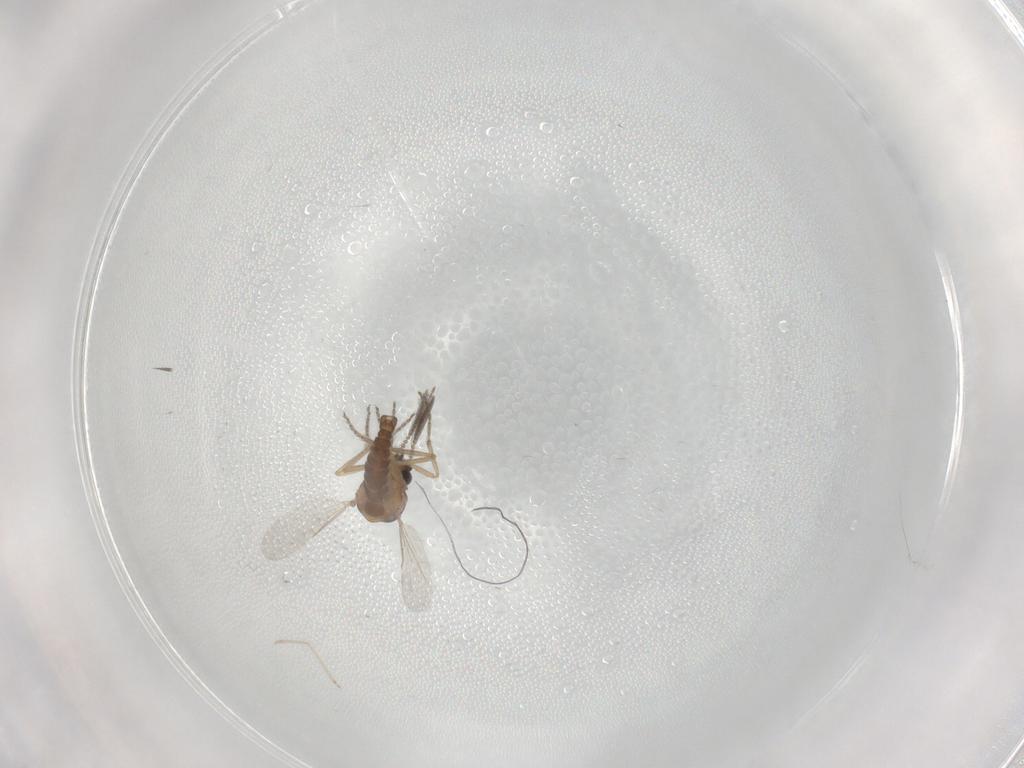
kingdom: Animalia
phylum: Arthropoda
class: Insecta
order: Diptera
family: Ceratopogonidae
